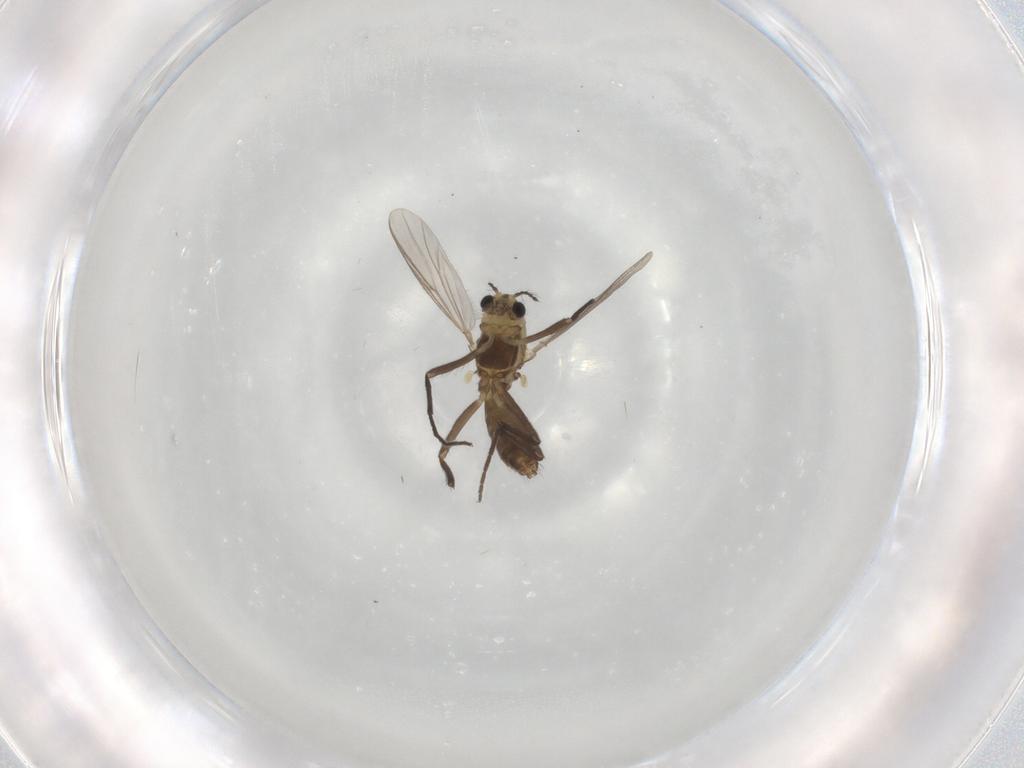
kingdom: Animalia
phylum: Arthropoda
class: Insecta
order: Diptera
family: Chironomidae
